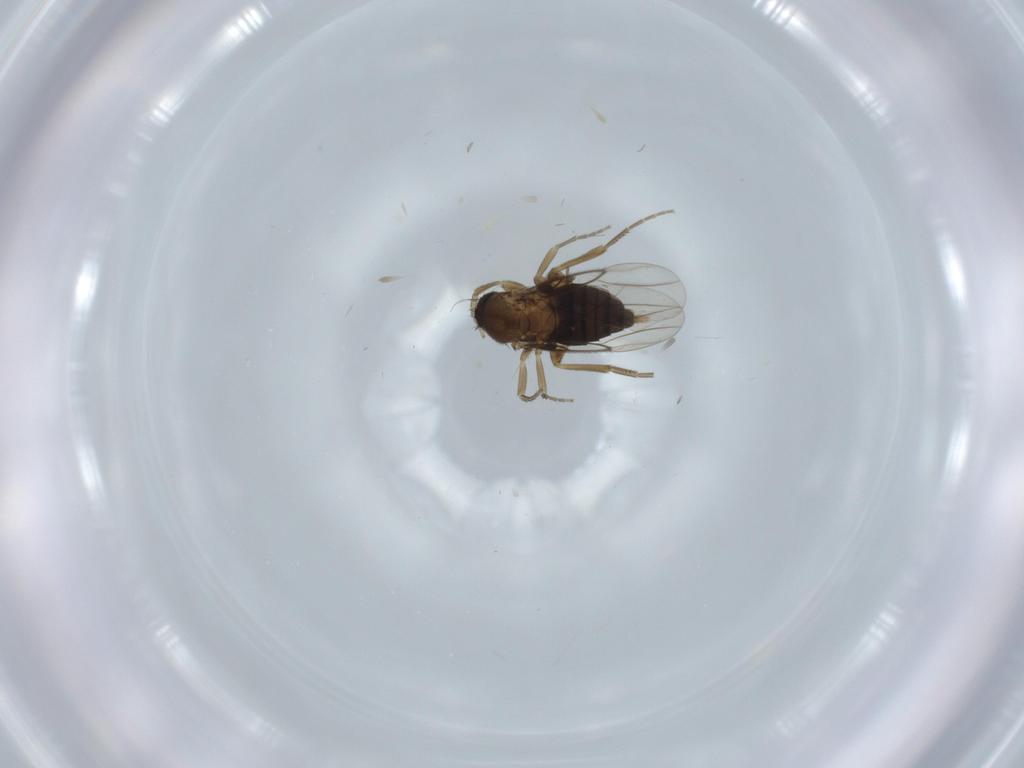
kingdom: Animalia
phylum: Arthropoda
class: Insecta
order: Diptera
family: Phoridae
